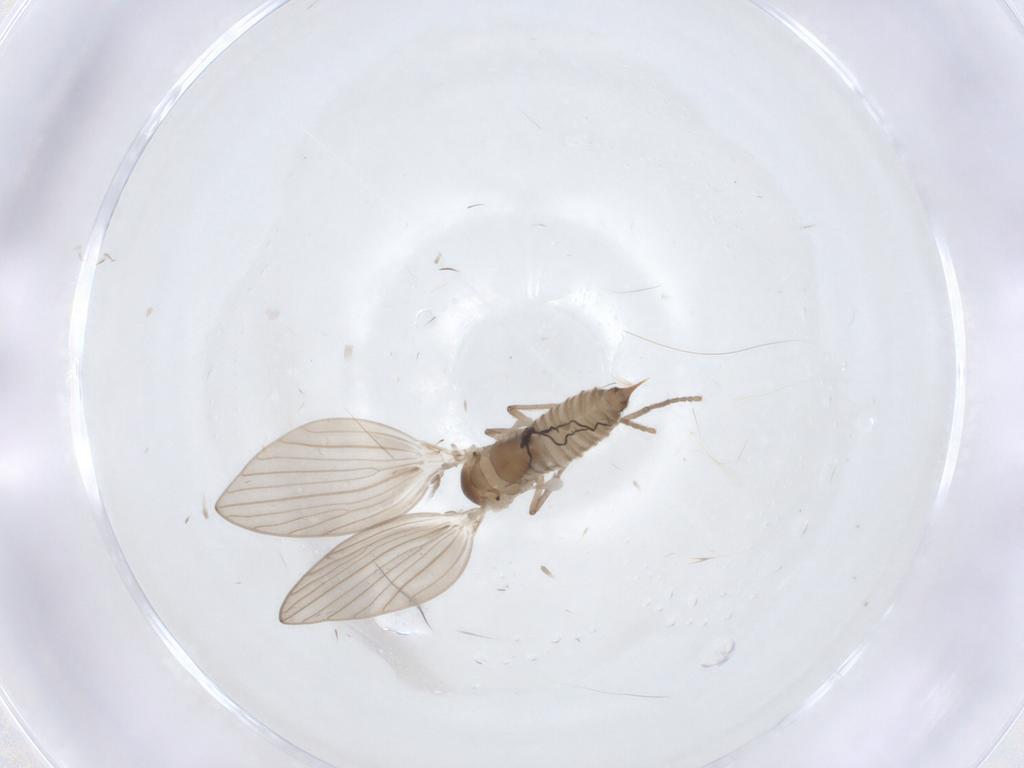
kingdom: Animalia
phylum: Arthropoda
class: Insecta
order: Diptera
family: Psychodidae
